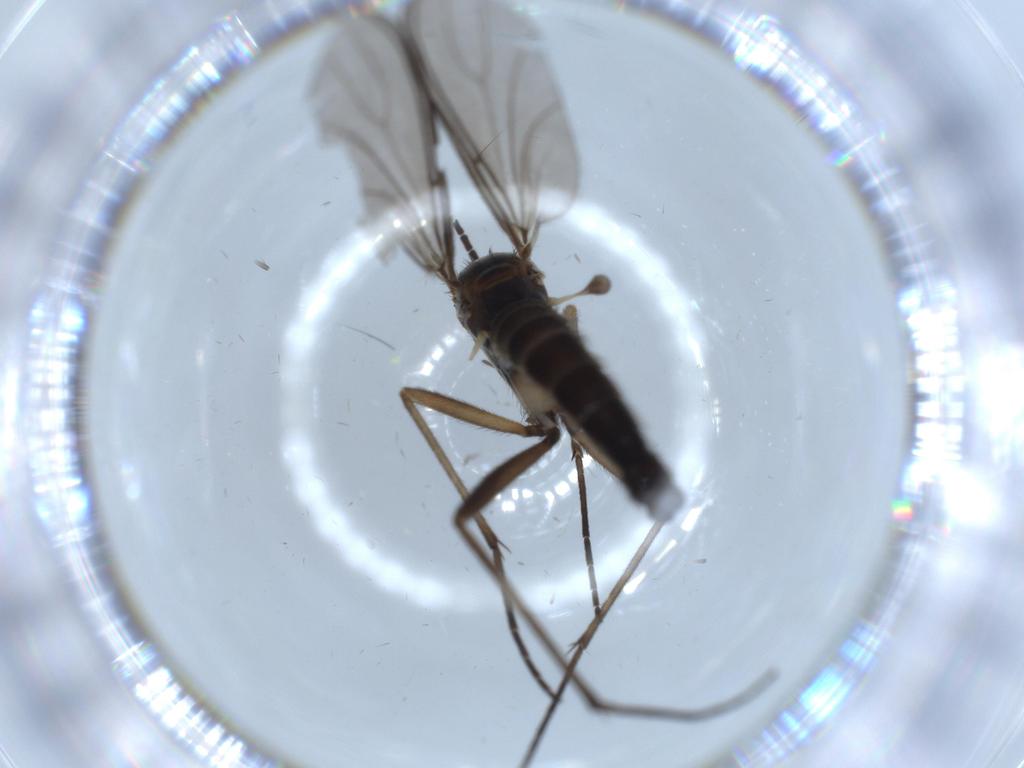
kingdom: Animalia
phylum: Arthropoda
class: Insecta
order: Diptera
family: Sciaridae
